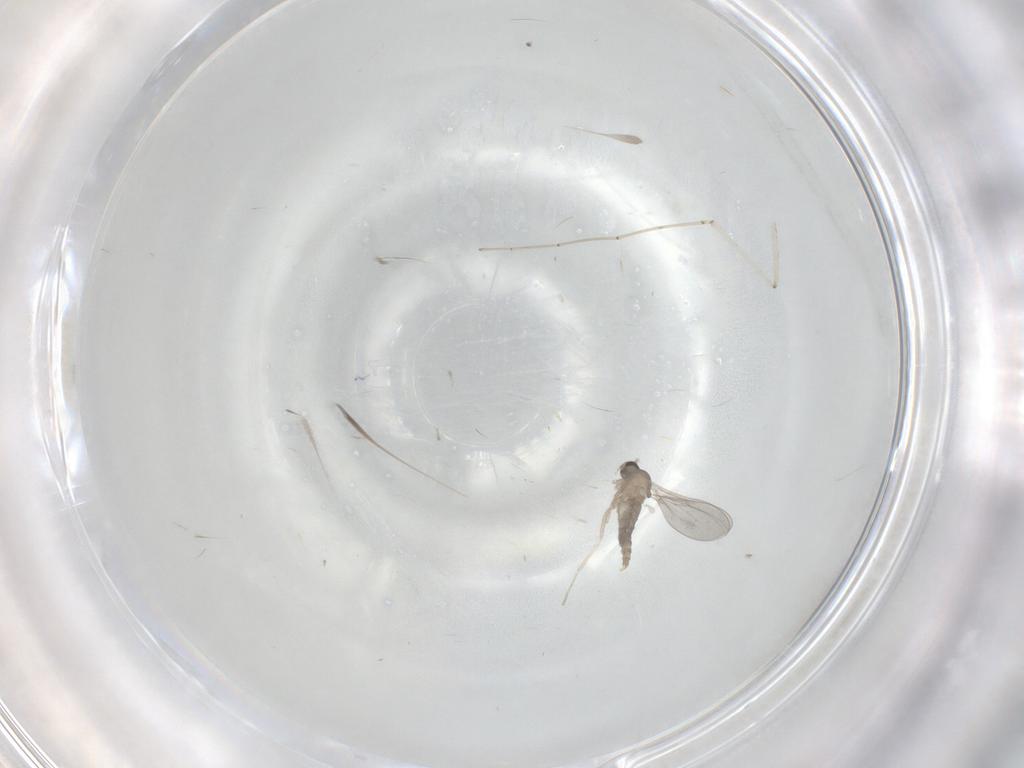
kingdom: Animalia
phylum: Arthropoda
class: Insecta
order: Diptera
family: Cecidomyiidae
